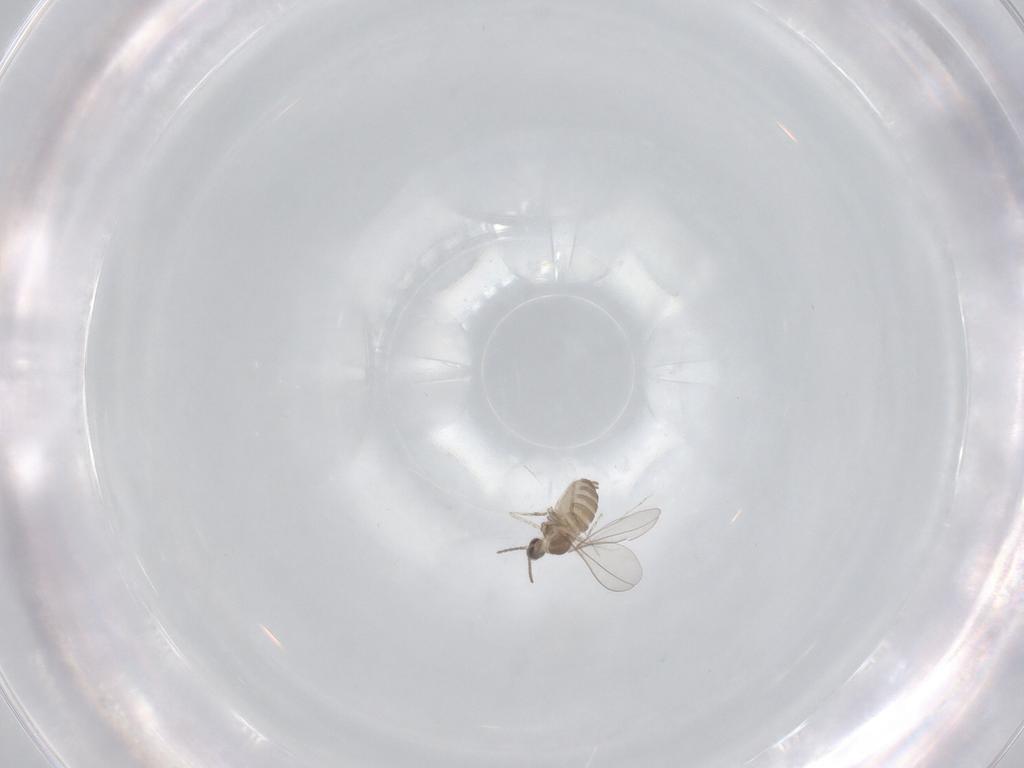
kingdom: Animalia
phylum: Arthropoda
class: Insecta
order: Diptera
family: Cecidomyiidae
